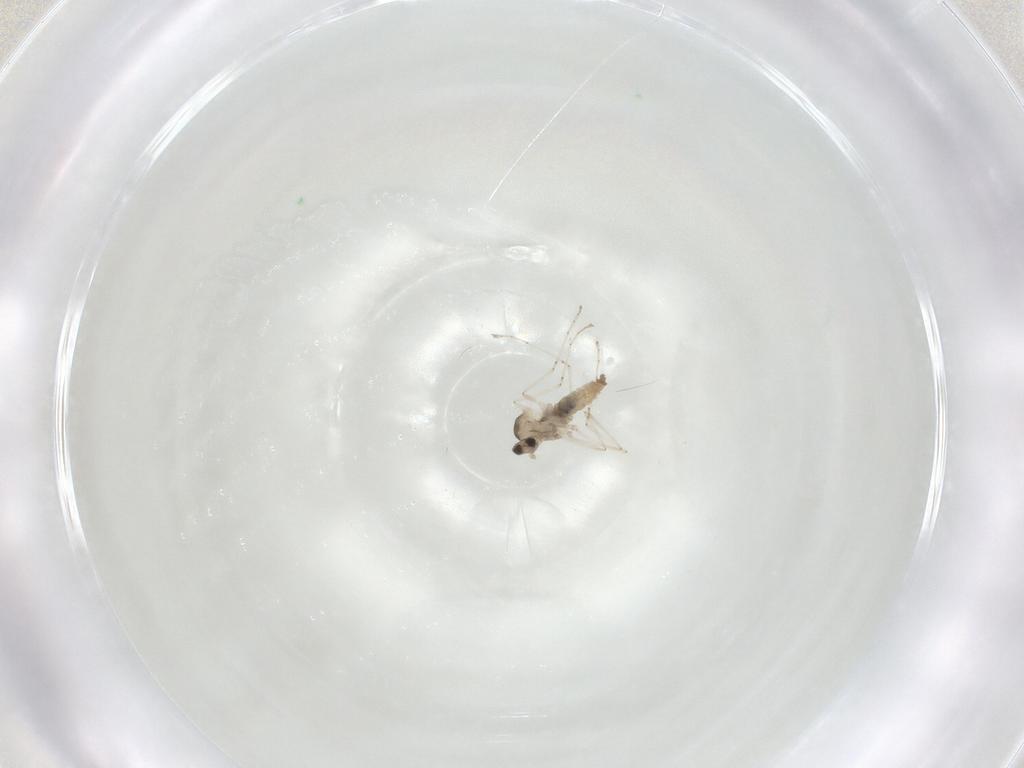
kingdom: Animalia
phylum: Arthropoda
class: Insecta
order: Diptera
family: Cecidomyiidae
